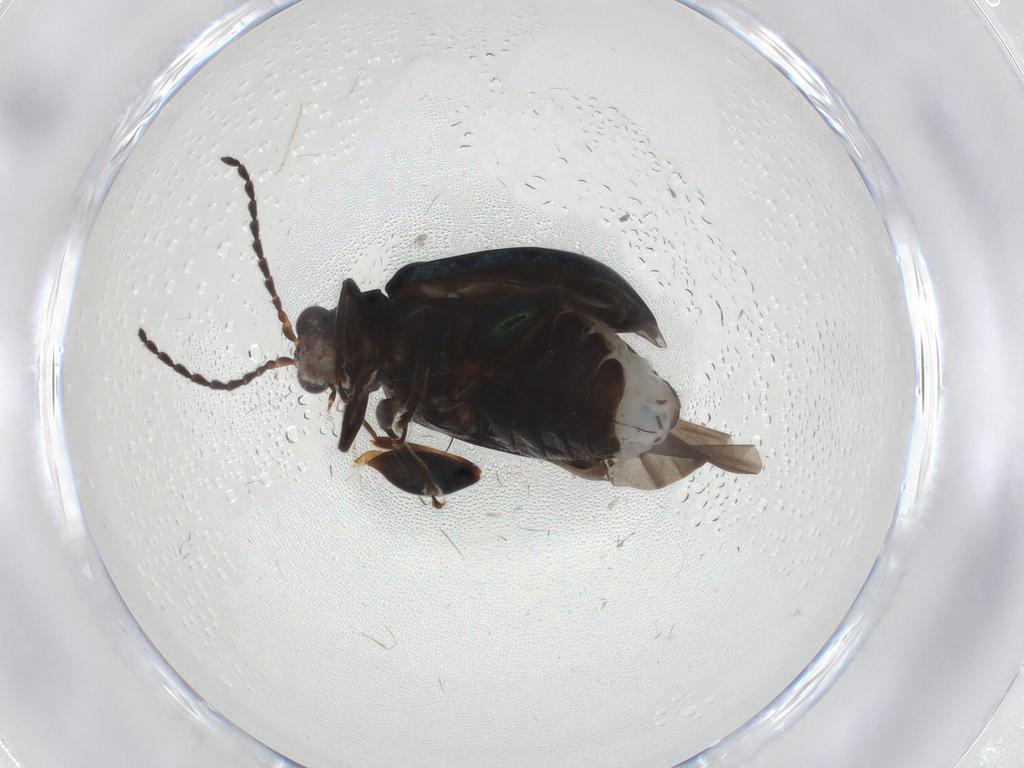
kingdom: Animalia
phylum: Arthropoda
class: Insecta
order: Coleoptera
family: Chrysomelidae
